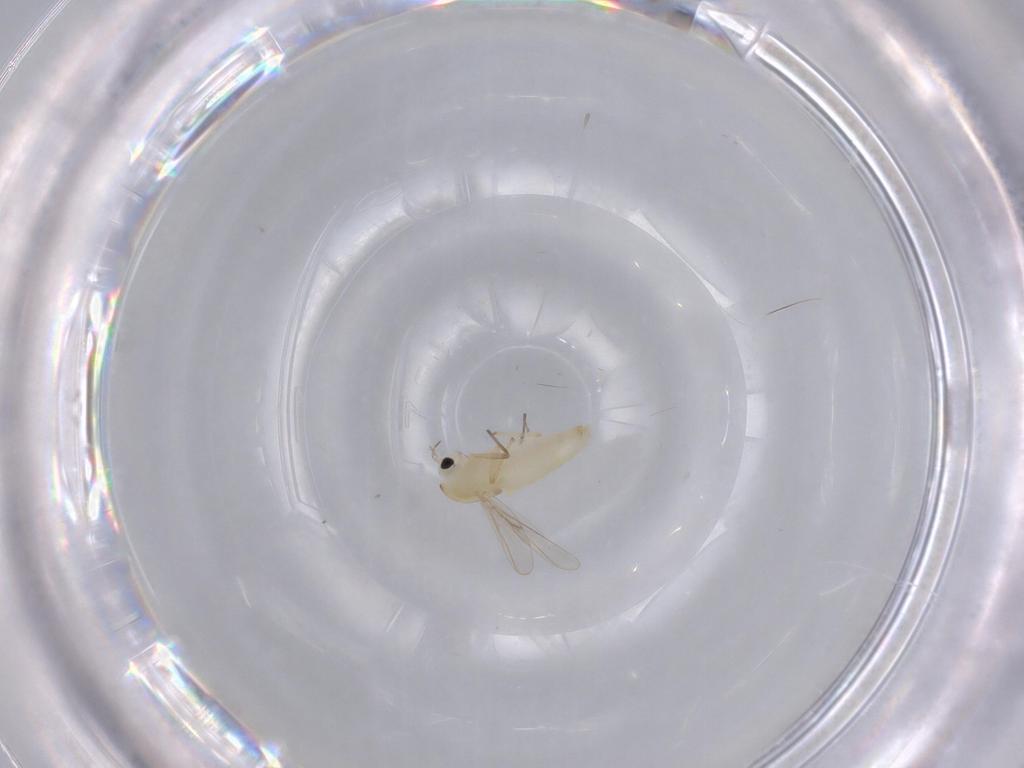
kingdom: Animalia
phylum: Arthropoda
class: Insecta
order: Diptera
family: Chironomidae
